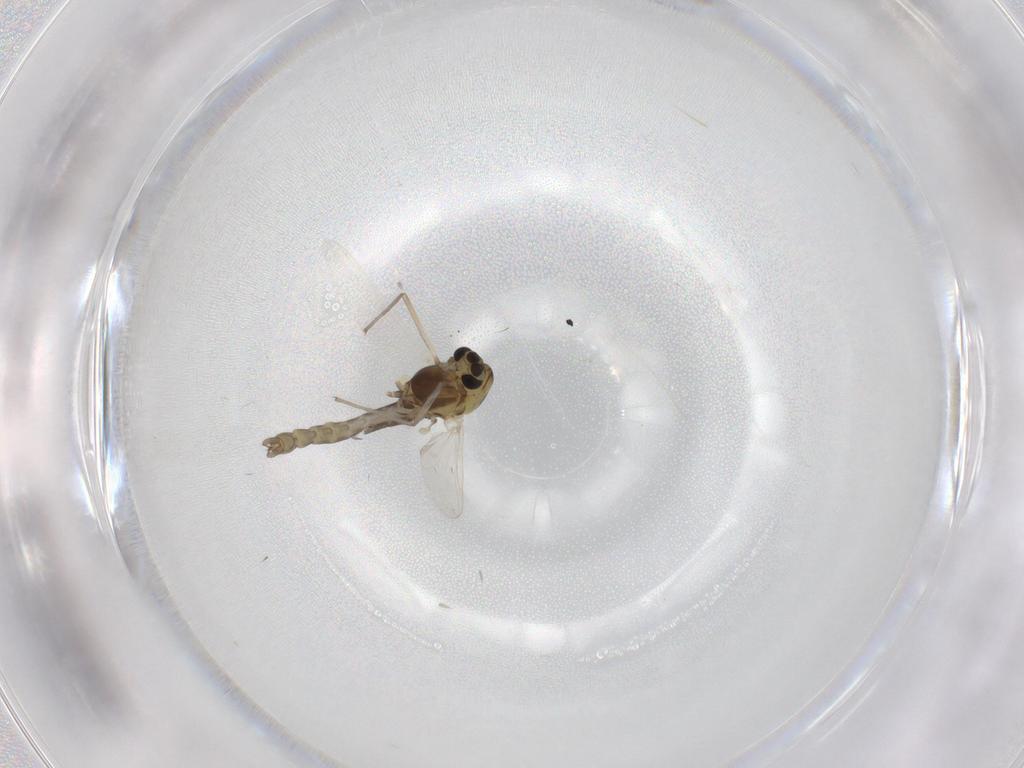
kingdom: Animalia
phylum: Arthropoda
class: Insecta
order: Diptera
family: Chironomidae
